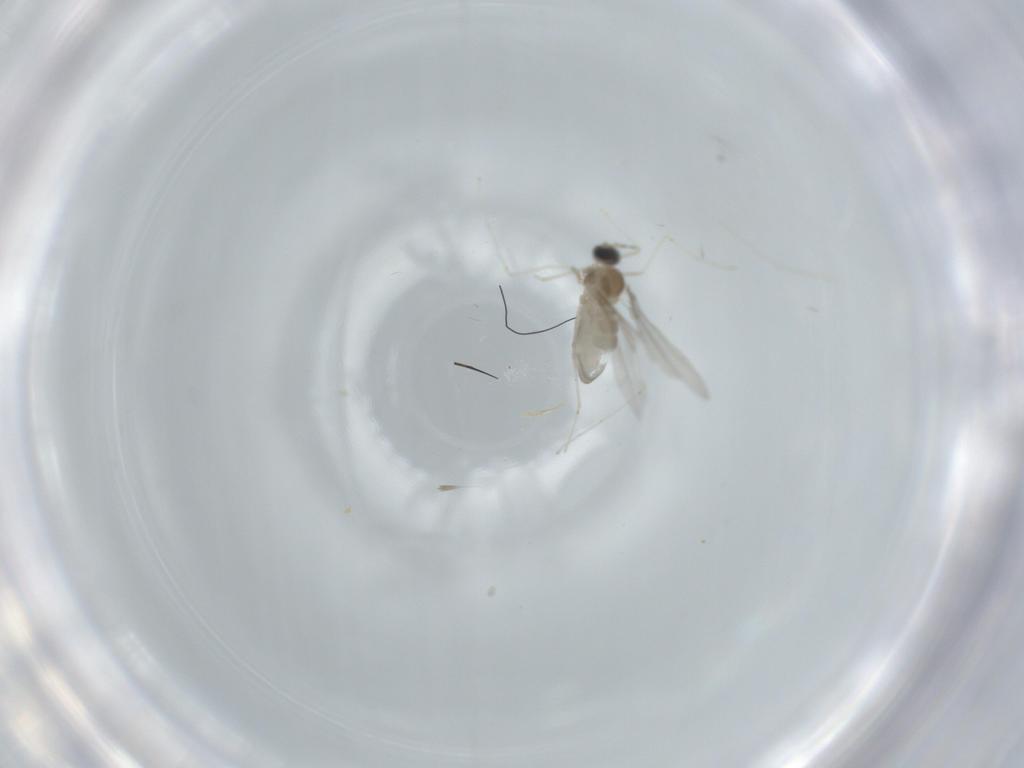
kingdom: Animalia
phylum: Arthropoda
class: Insecta
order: Diptera
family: Cecidomyiidae
